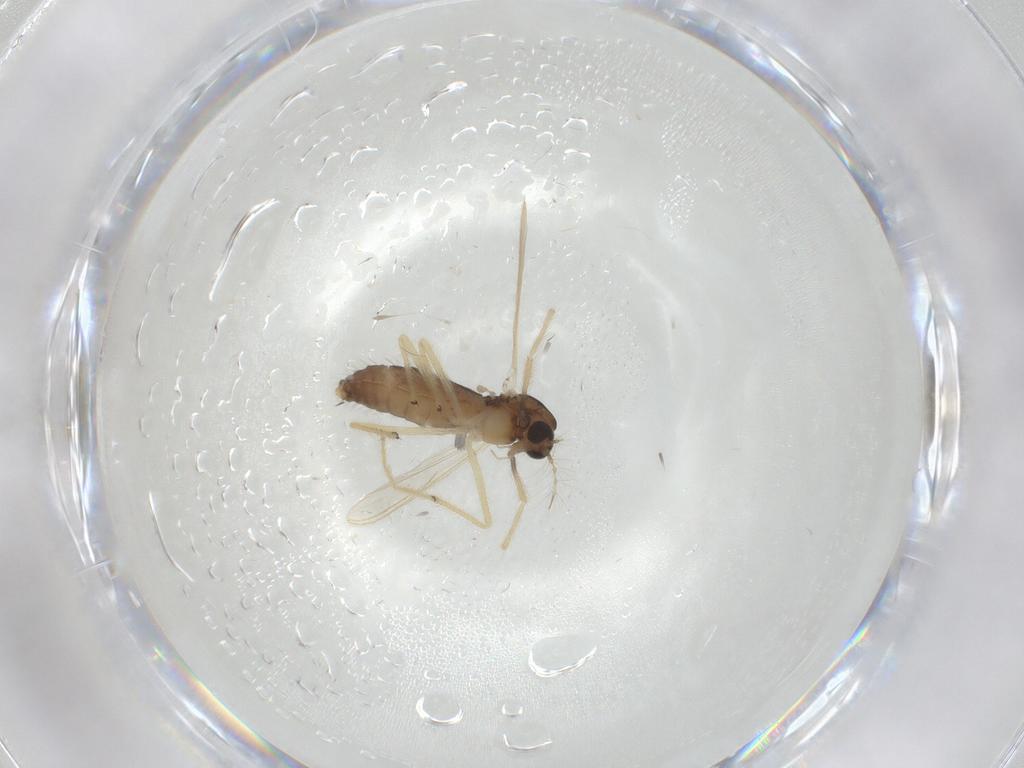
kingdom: Animalia
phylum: Arthropoda
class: Insecta
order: Diptera
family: Chironomidae
